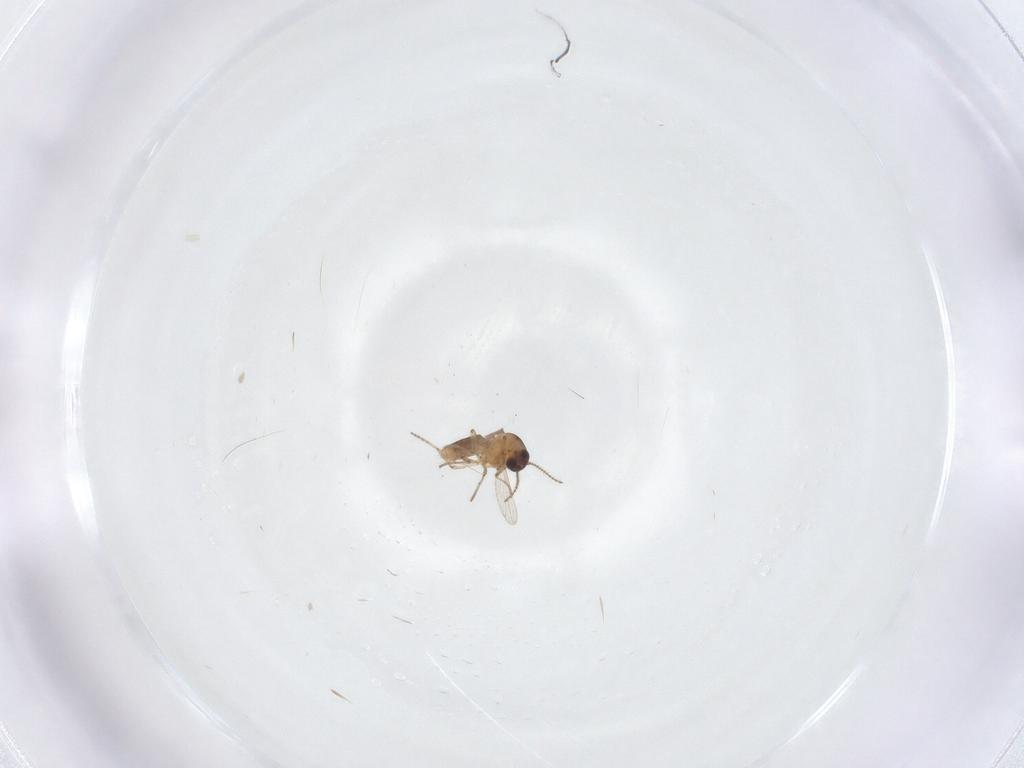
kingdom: Animalia
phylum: Arthropoda
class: Insecta
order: Diptera
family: Ceratopogonidae
